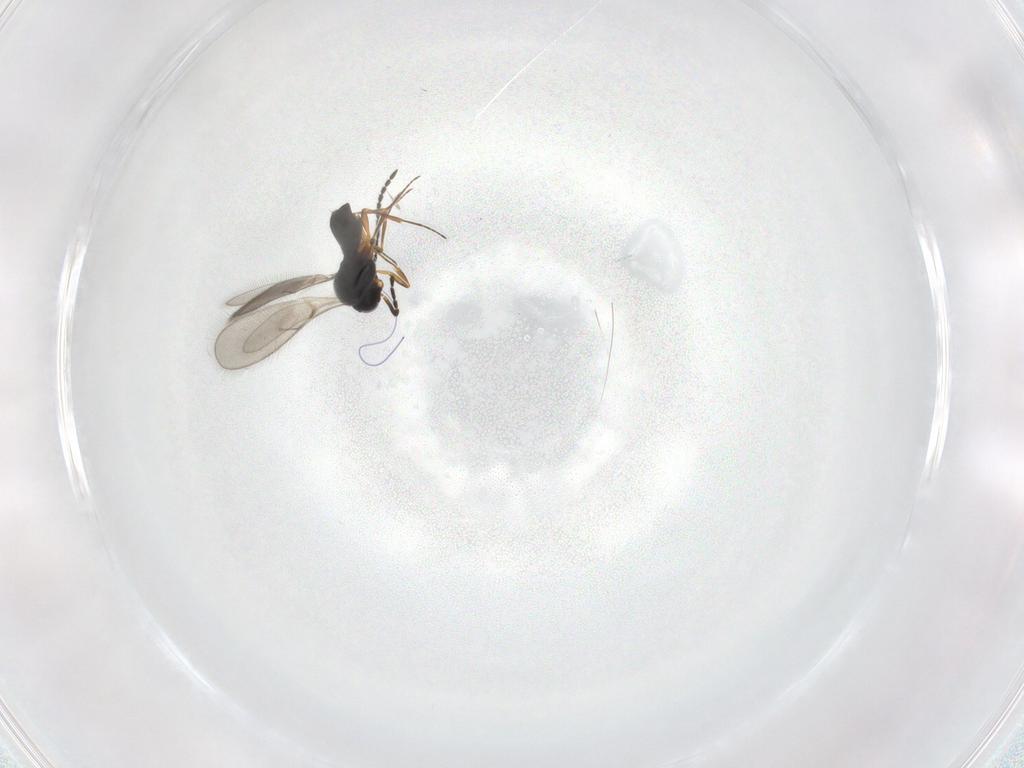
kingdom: Animalia
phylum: Arthropoda
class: Insecta
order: Hymenoptera
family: Scelionidae
